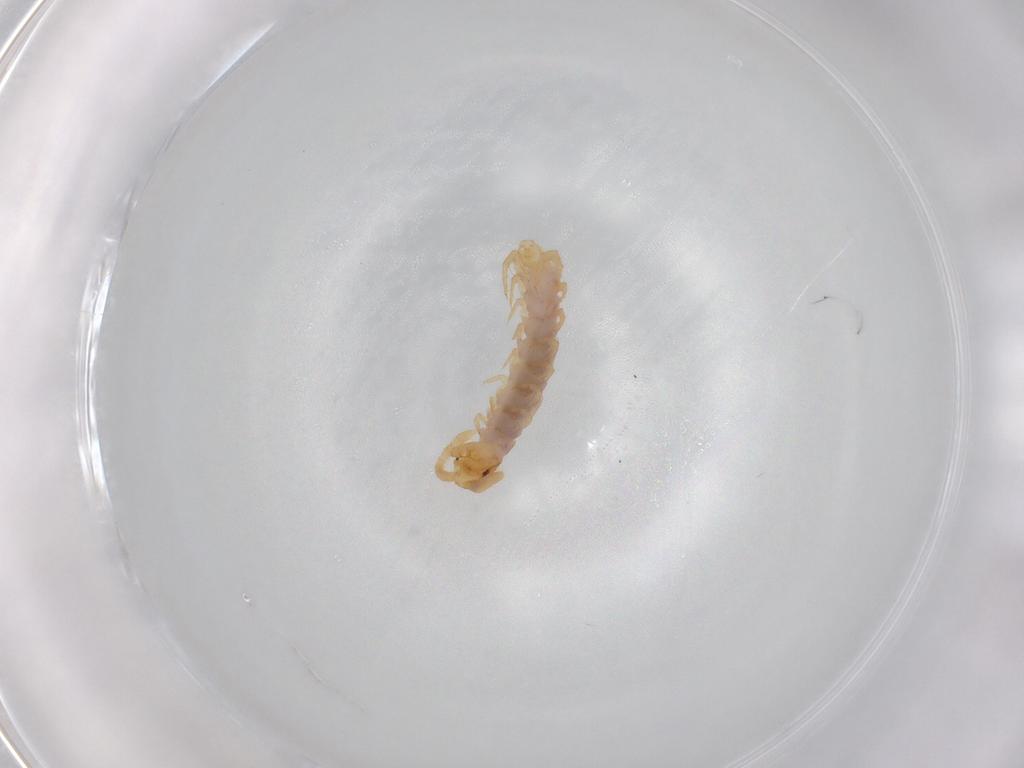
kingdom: Animalia
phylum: Arthropoda
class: Chilopoda
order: Lithobiomorpha
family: Lithobiidae
